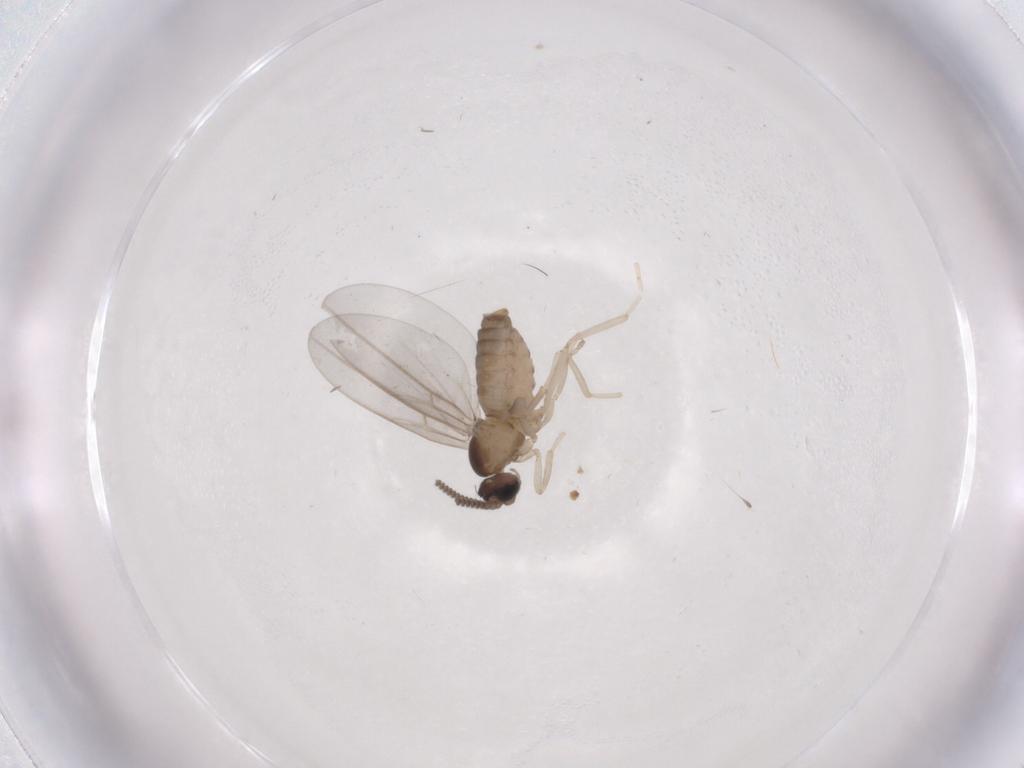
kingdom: Animalia
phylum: Arthropoda
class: Insecta
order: Diptera
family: Cecidomyiidae
